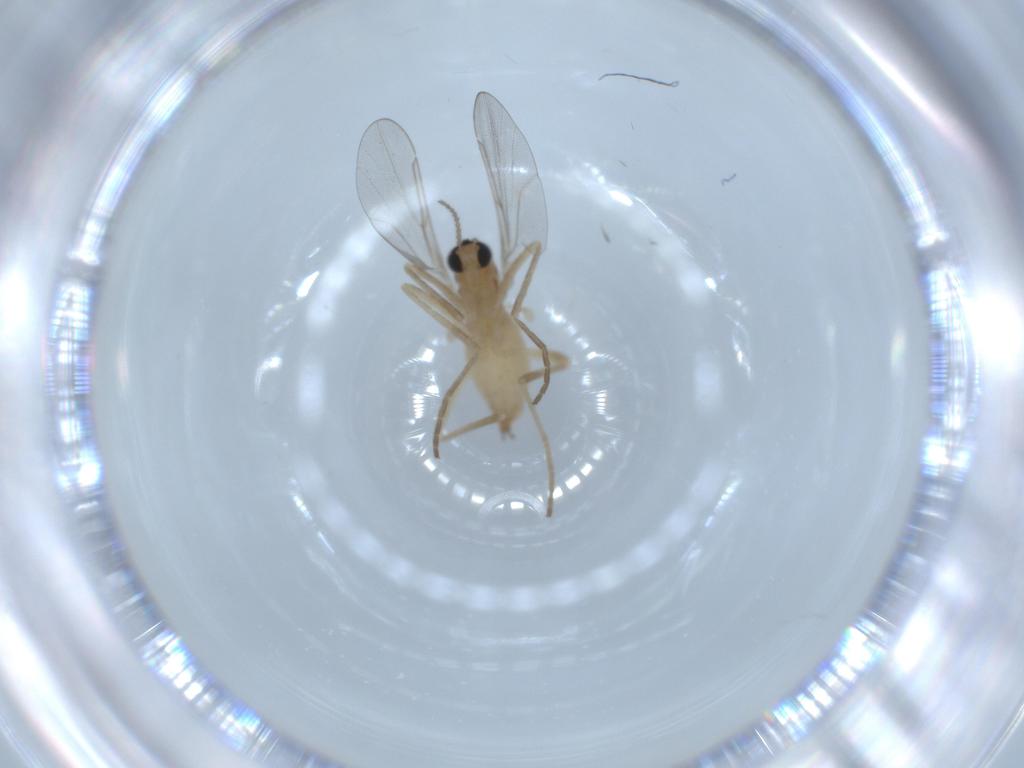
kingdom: Animalia
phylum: Arthropoda
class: Insecta
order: Diptera
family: Cecidomyiidae
